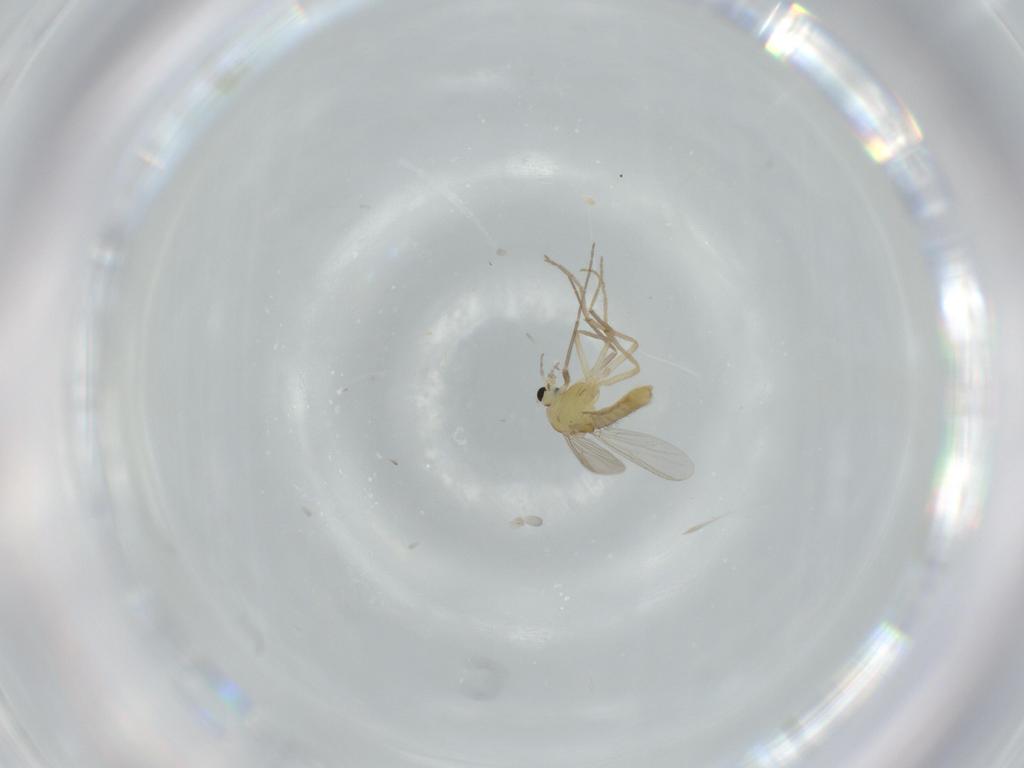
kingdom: Animalia
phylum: Arthropoda
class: Insecta
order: Diptera
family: Chironomidae
